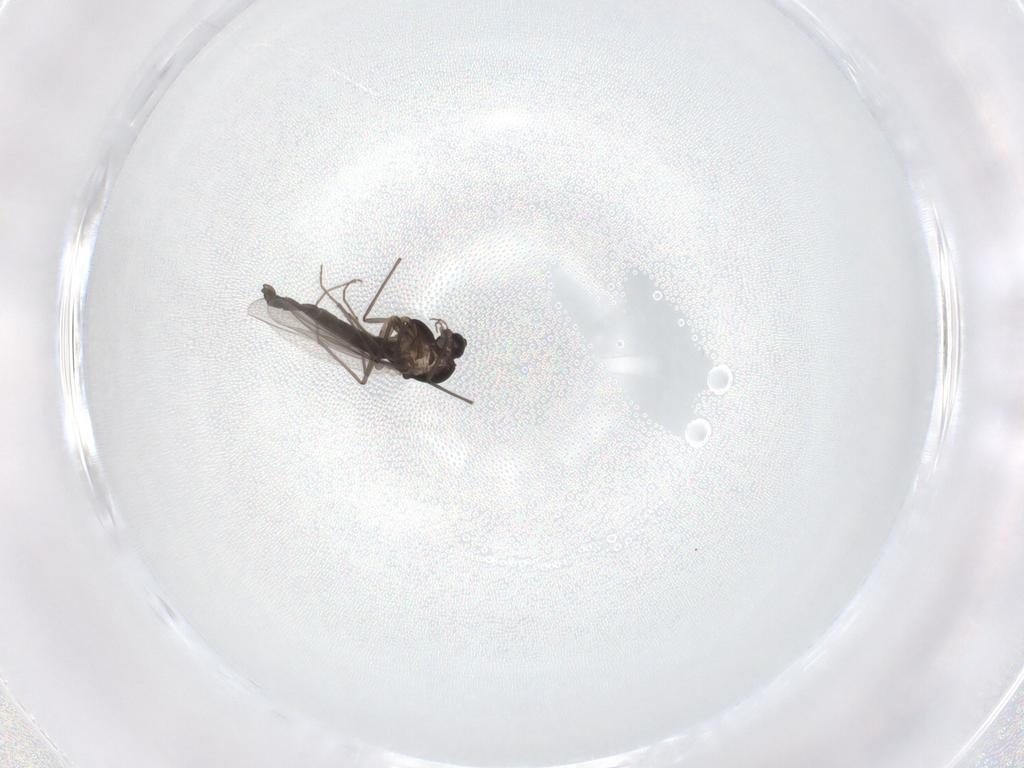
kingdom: Animalia
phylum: Arthropoda
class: Insecta
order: Diptera
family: Chironomidae
